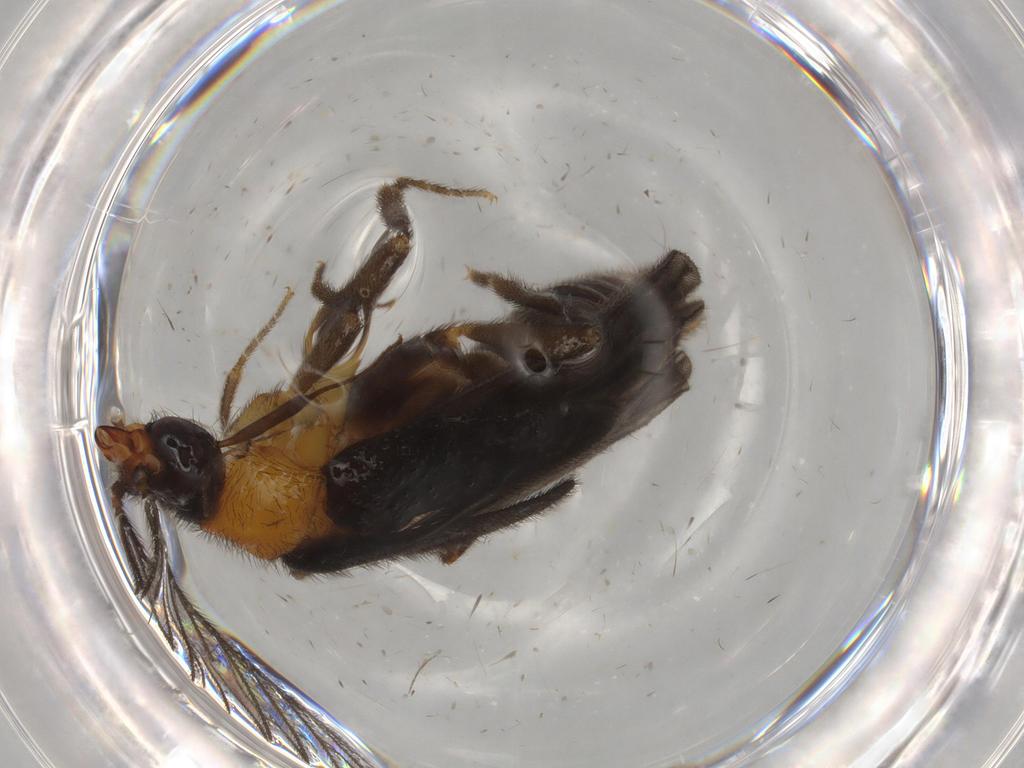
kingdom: Animalia
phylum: Arthropoda
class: Insecta
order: Coleoptera
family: Phengodidae
